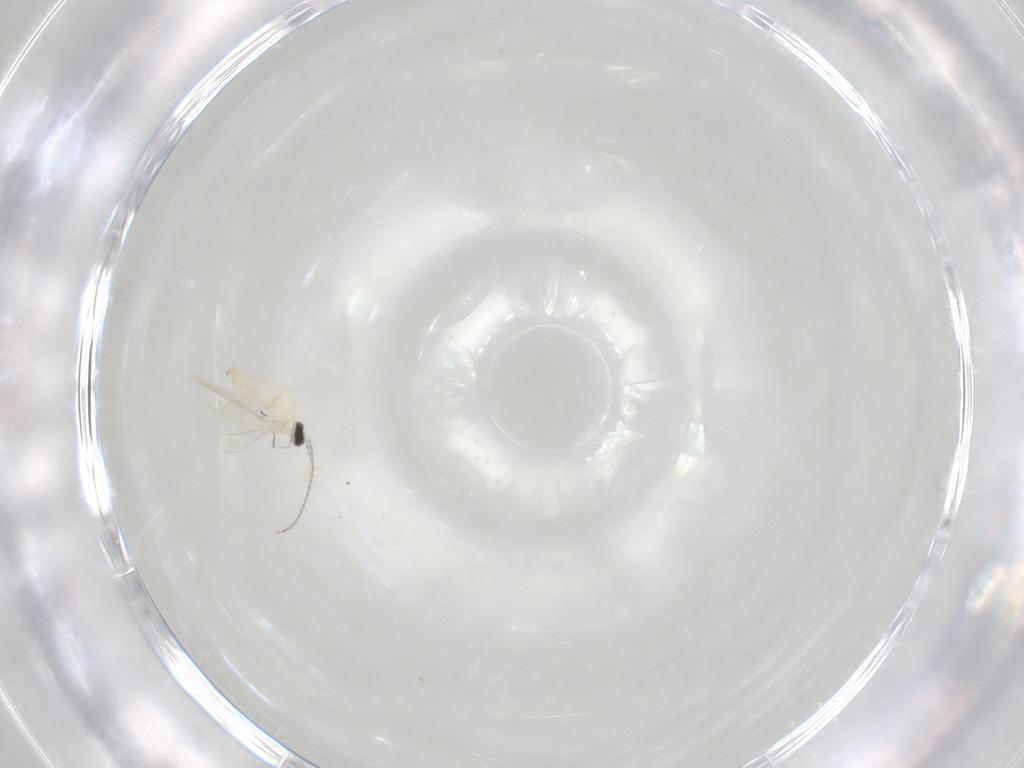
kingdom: Animalia
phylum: Arthropoda
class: Insecta
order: Diptera
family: Cecidomyiidae
